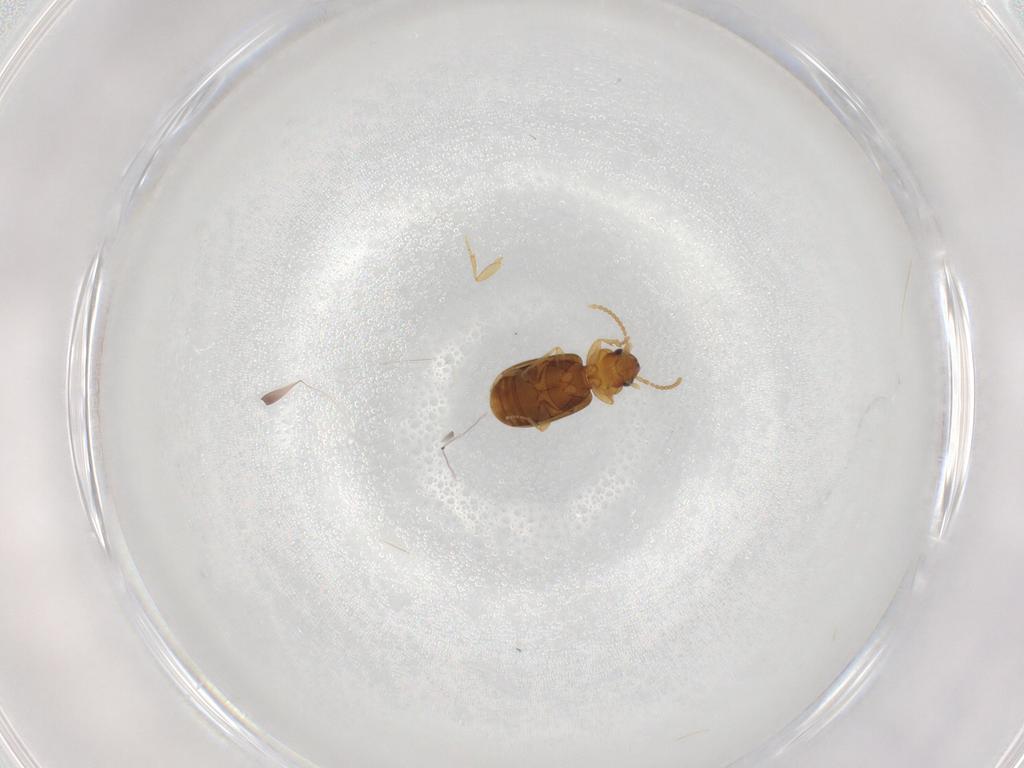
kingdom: Animalia
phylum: Arthropoda
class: Insecta
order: Coleoptera
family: Carabidae
